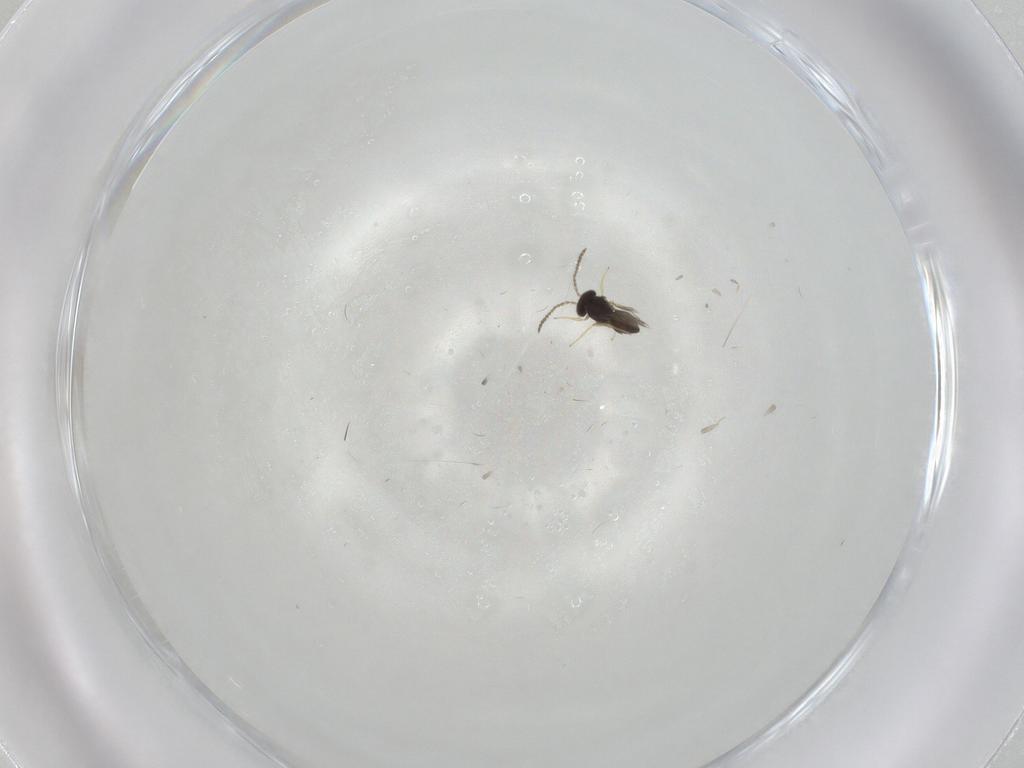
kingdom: Animalia
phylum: Arthropoda
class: Insecta
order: Hymenoptera
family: Scelionidae
